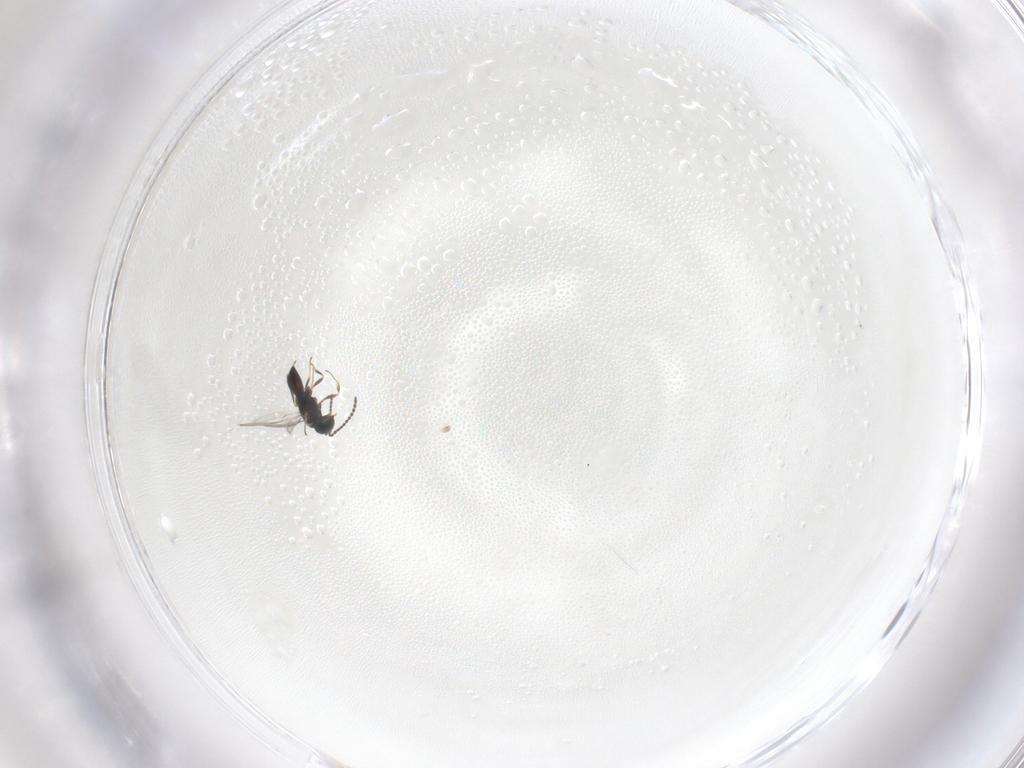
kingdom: Animalia
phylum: Arthropoda
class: Insecta
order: Hymenoptera
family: Scelionidae
